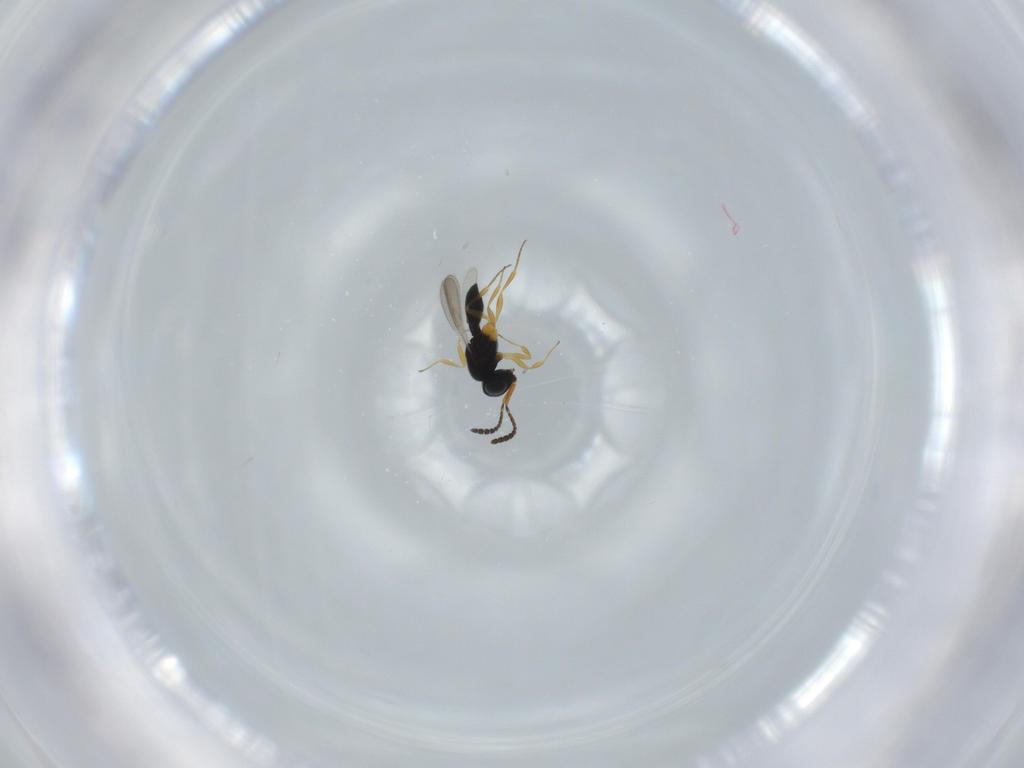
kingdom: Animalia
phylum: Arthropoda
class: Insecta
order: Hymenoptera
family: Scelionidae
